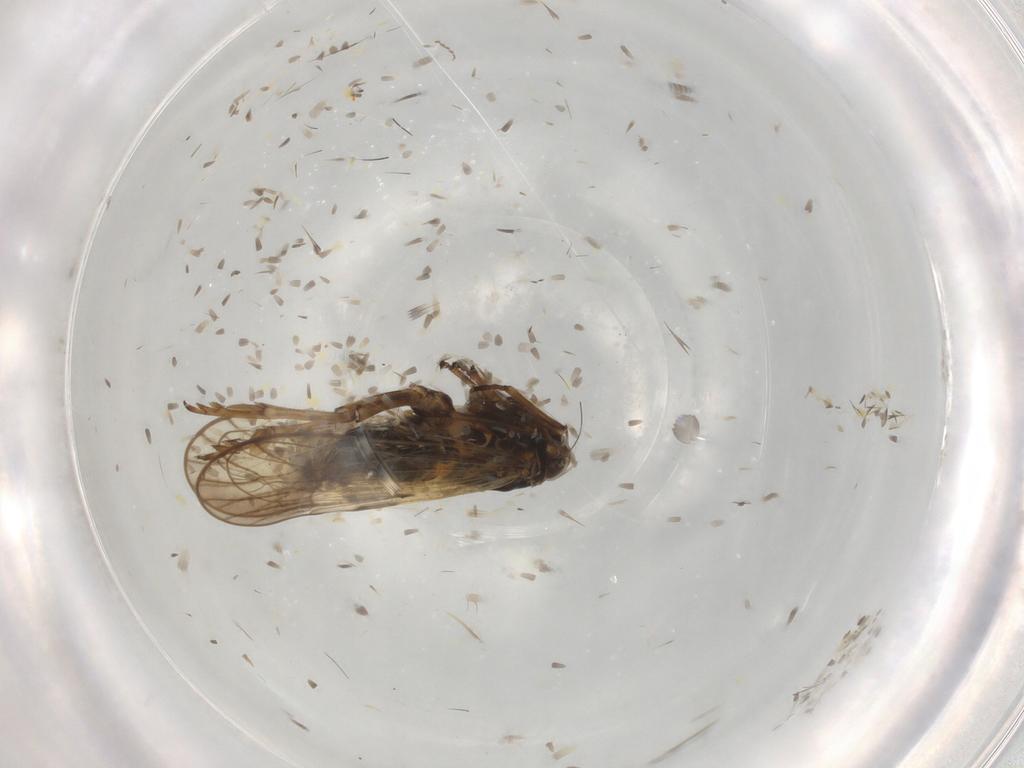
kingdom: Animalia
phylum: Arthropoda
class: Insecta
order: Hemiptera
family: Delphacidae
